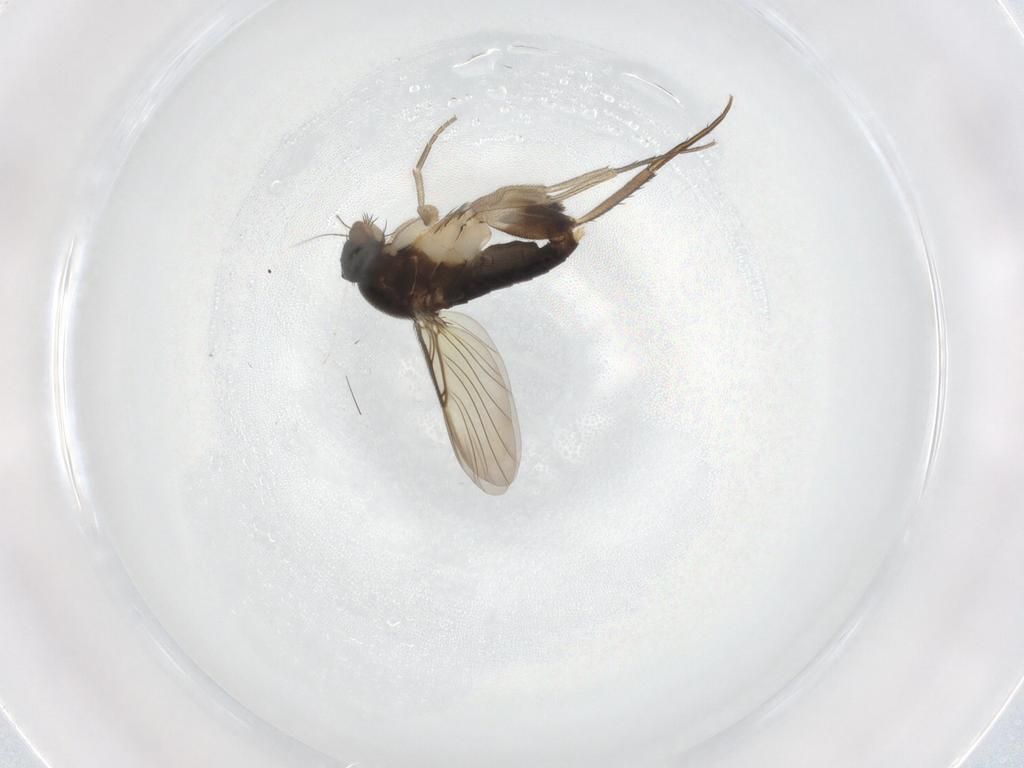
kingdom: Animalia
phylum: Arthropoda
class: Insecta
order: Diptera
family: Phoridae
